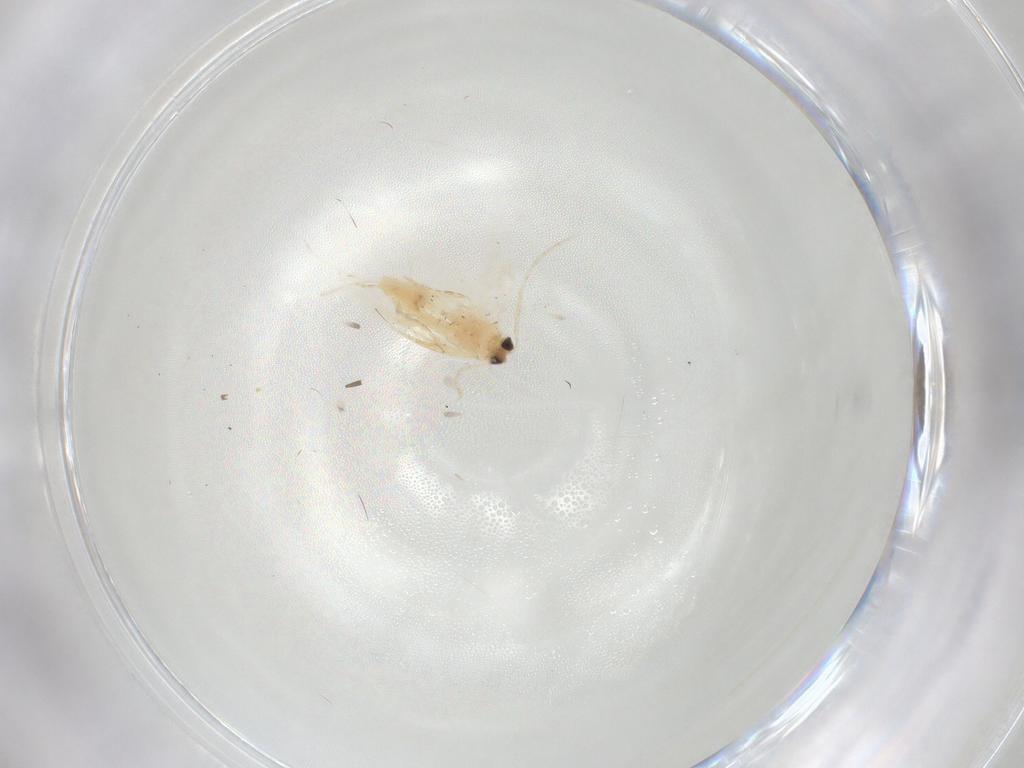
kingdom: Animalia
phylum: Arthropoda
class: Insecta
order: Lepidoptera
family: Nepticulidae
